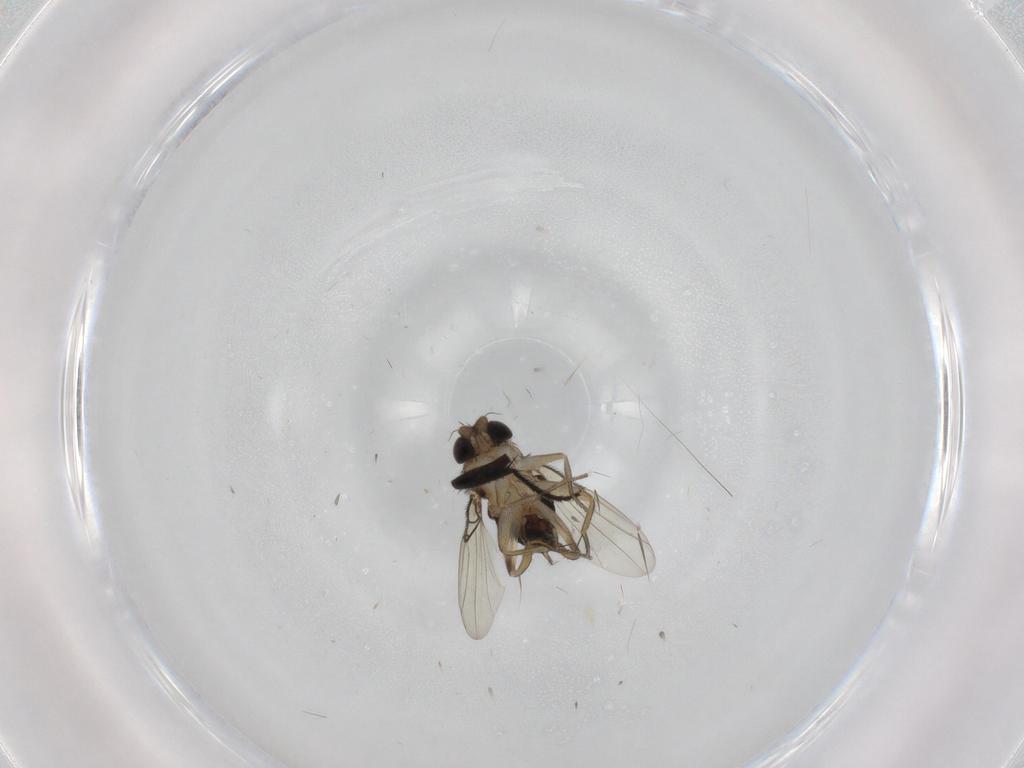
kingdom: Animalia
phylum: Arthropoda
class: Insecta
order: Diptera
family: Phoridae
